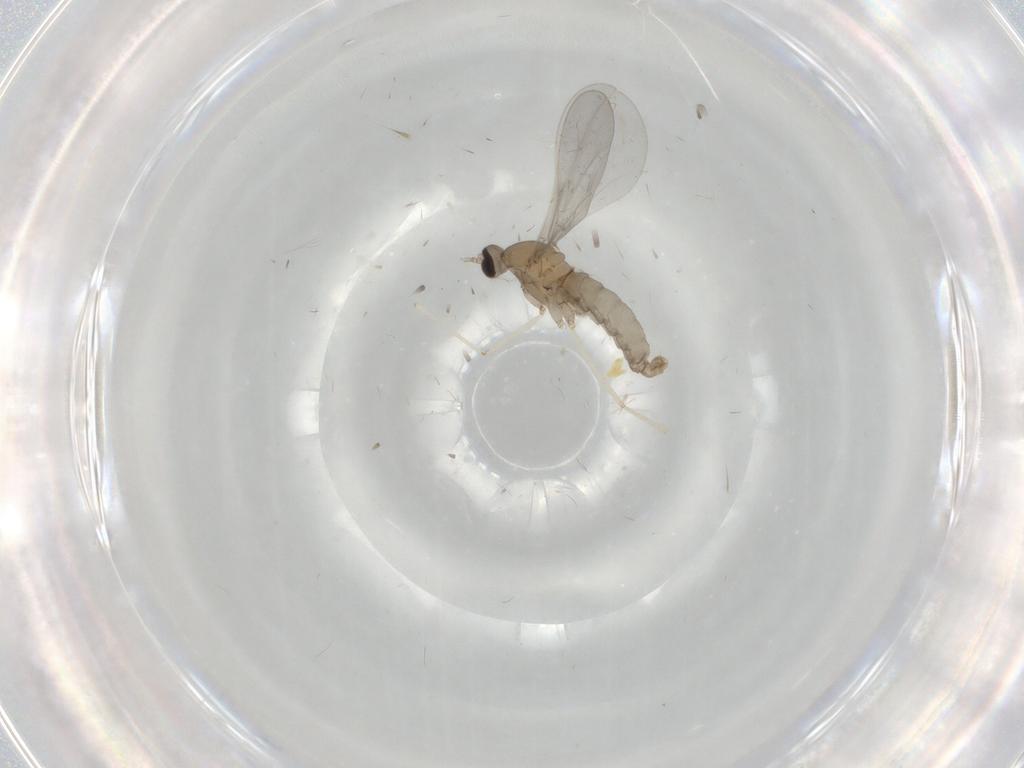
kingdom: Animalia
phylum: Arthropoda
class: Insecta
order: Diptera
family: Cecidomyiidae
